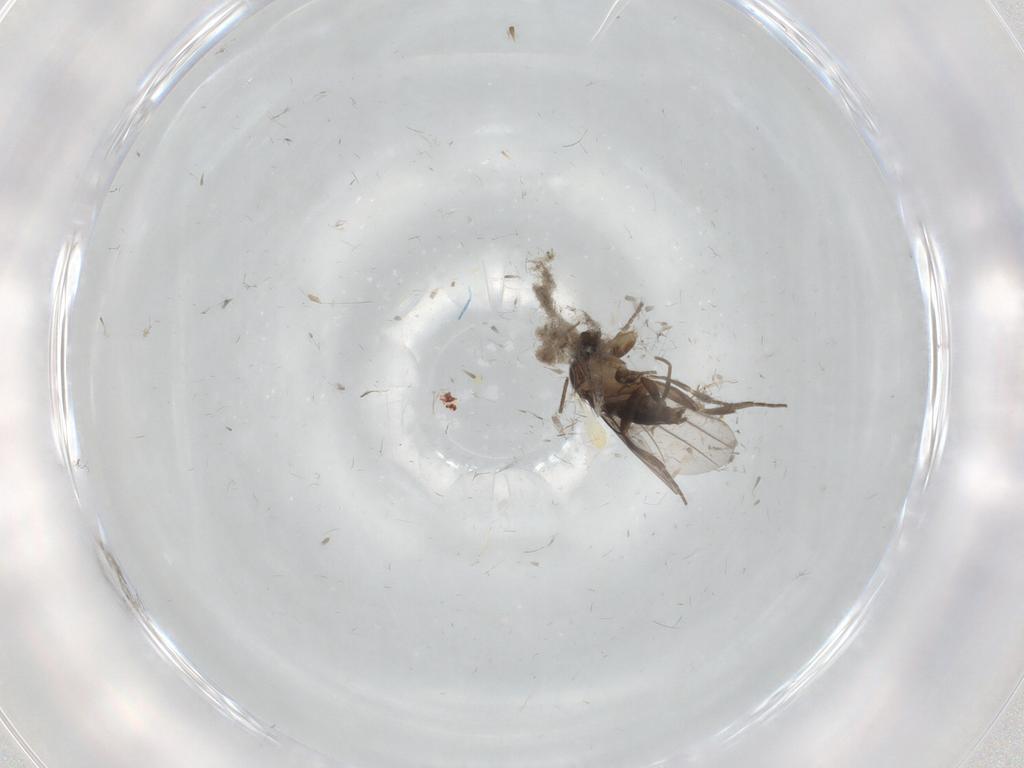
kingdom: Animalia
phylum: Arthropoda
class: Insecta
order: Diptera
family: Phoridae
